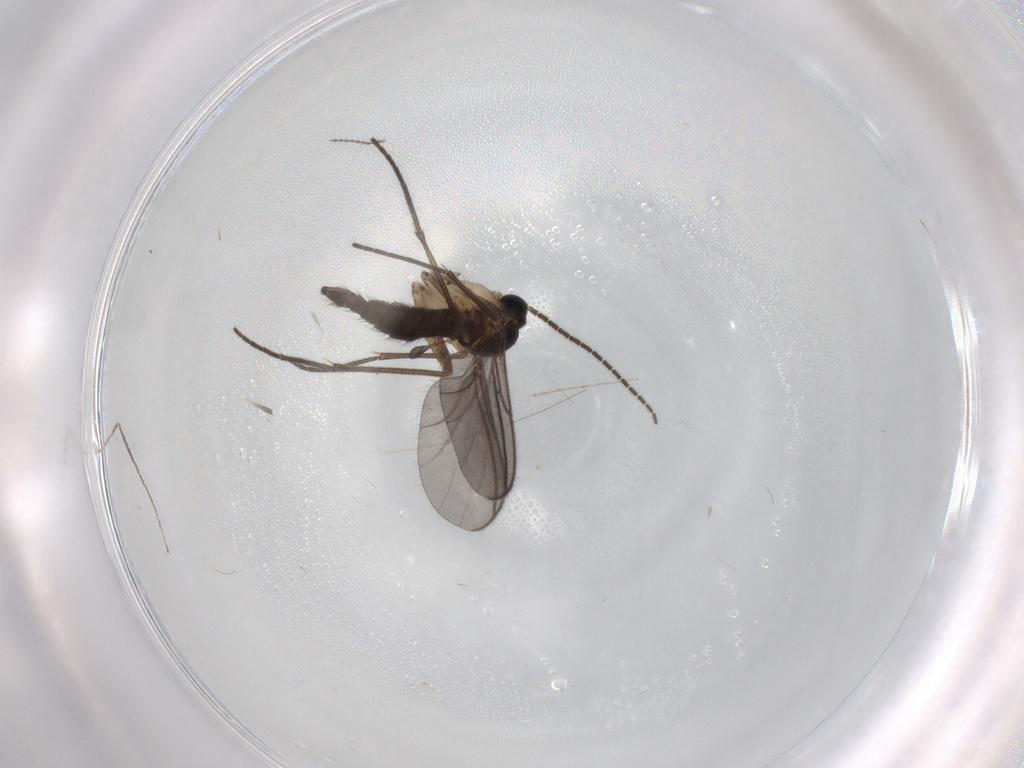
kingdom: Animalia
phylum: Arthropoda
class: Insecta
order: Diptera
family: Sciaridae
